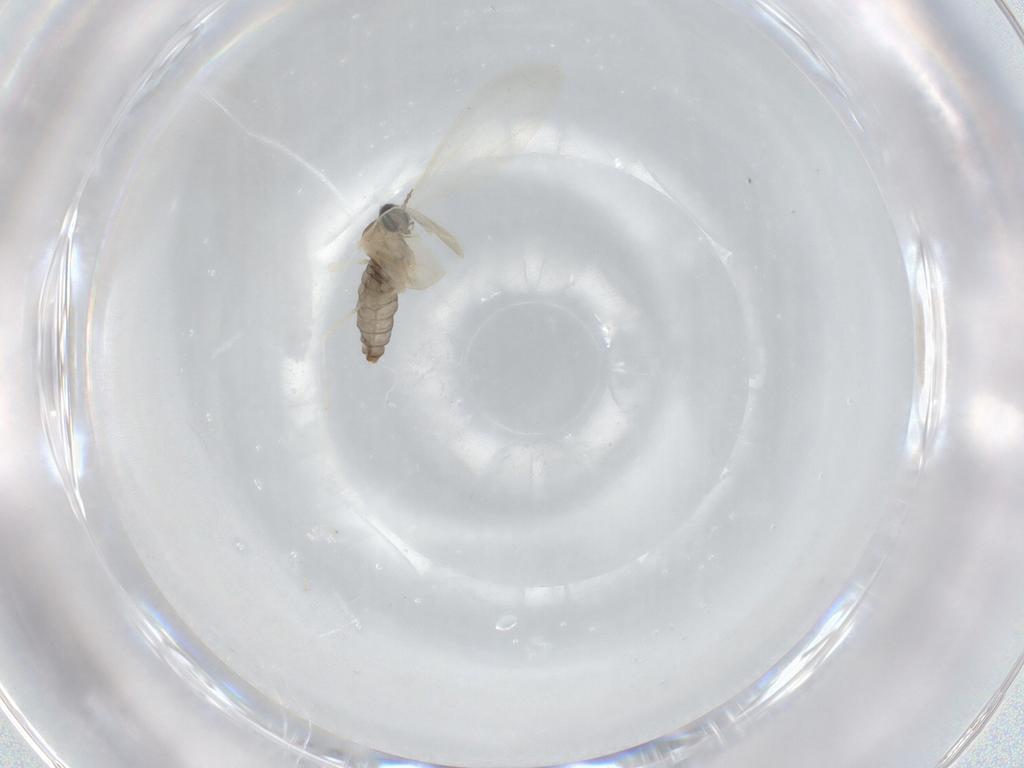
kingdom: Animalia
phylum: Arthropoda
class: Insecta
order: Diptera
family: Cecidomyiidae
